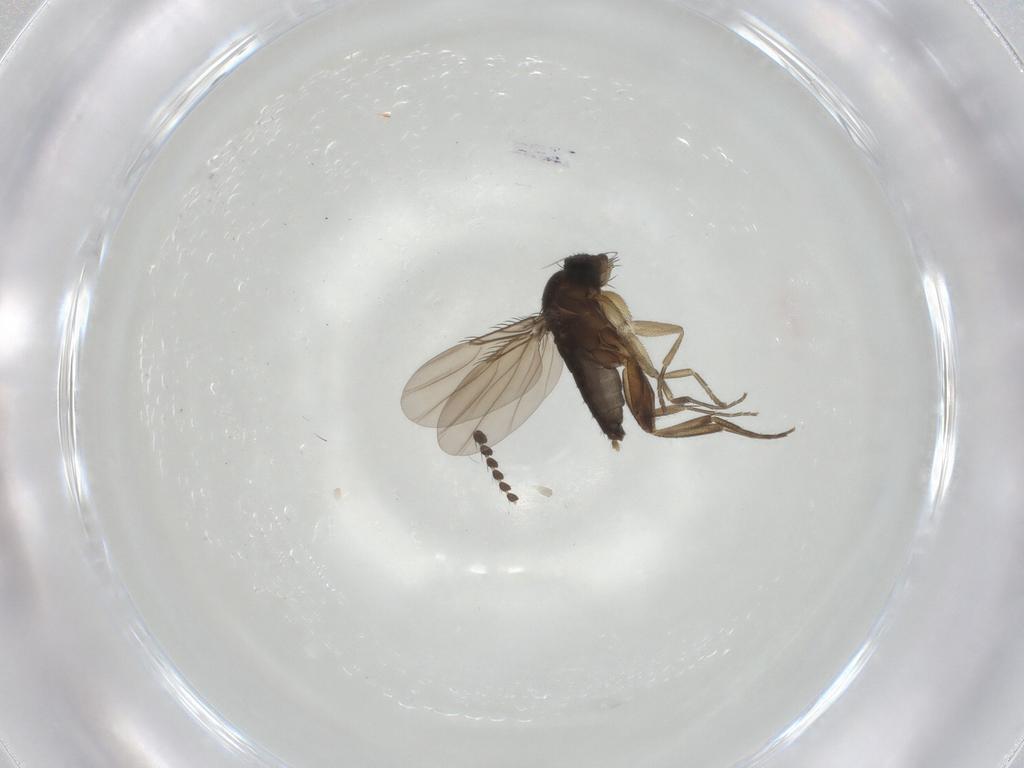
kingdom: Animalia
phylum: Arthropoda
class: Insecta
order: Diptera
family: Phoridae
